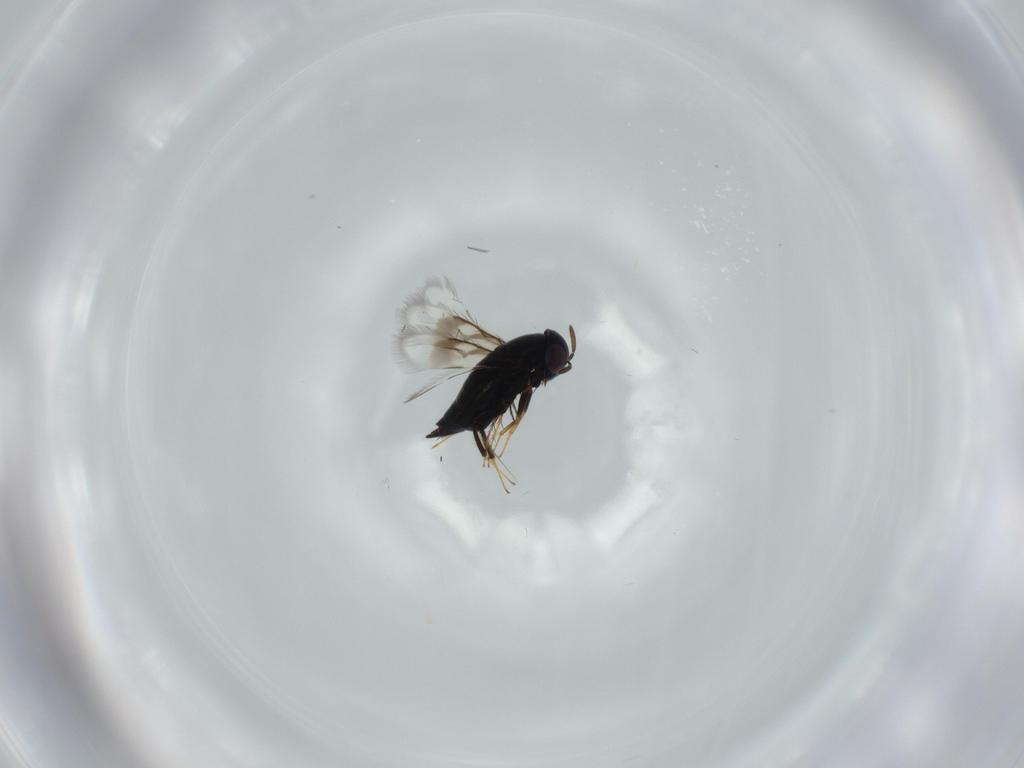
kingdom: Animalia
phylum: Arthropoda
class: Insecta
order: Hymenoptera
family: Signiphoridae
